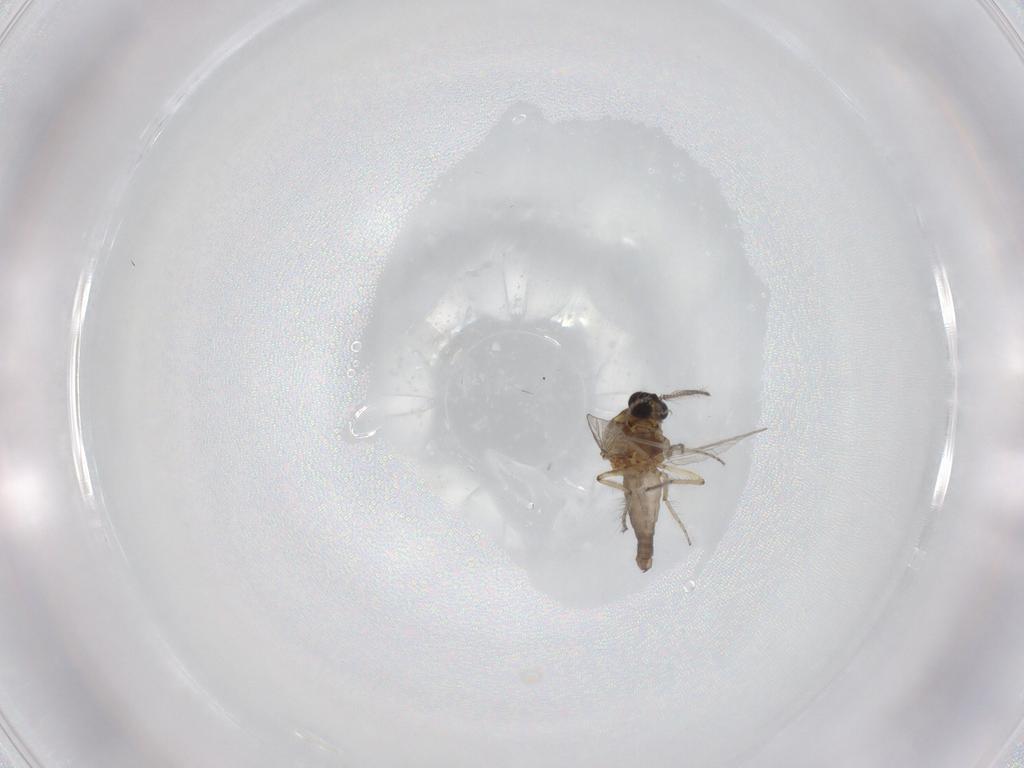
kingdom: Animalia
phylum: Arthropoda
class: Insecta
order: Diptera
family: Ceratopogonidae
